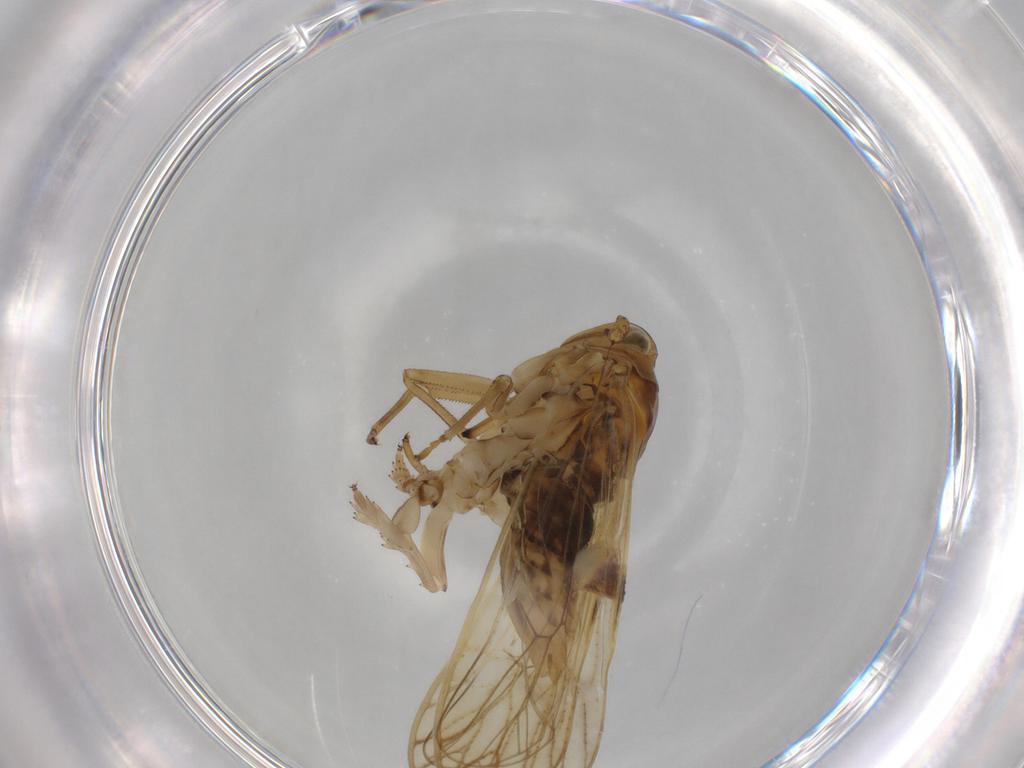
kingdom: Animalia
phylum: Arthropoda
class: Insecta
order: Hemiptera
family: Delphacidae
